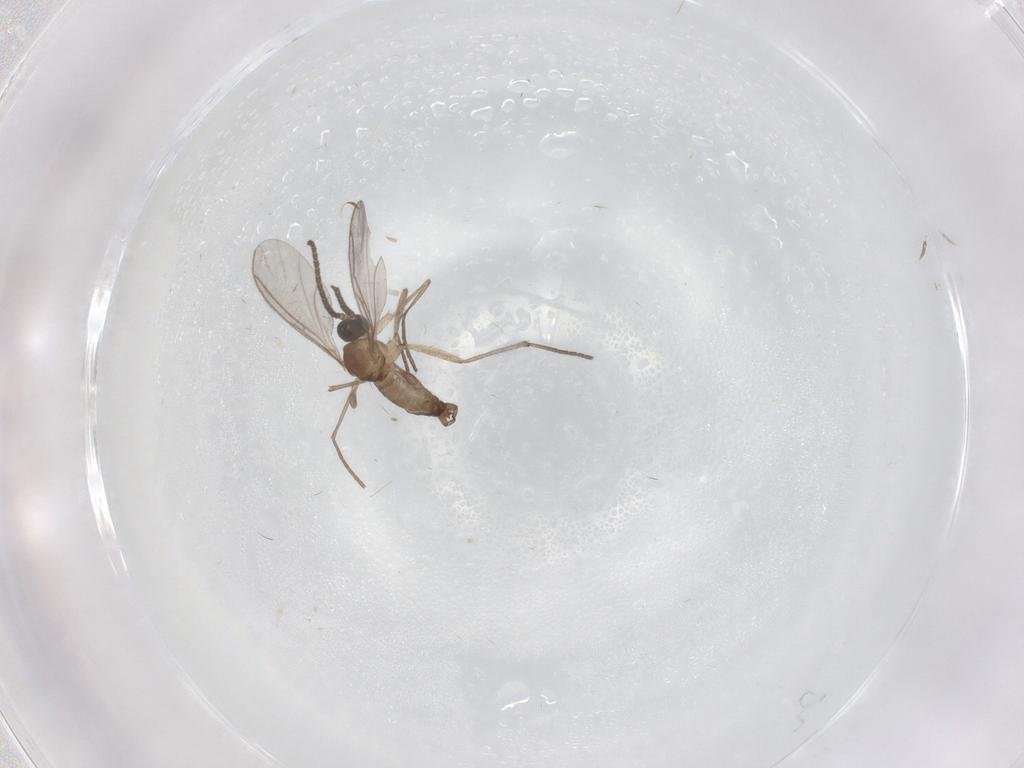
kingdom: Animalia
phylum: Arthropoda
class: Insecta
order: Diptera
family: Sciaridae
